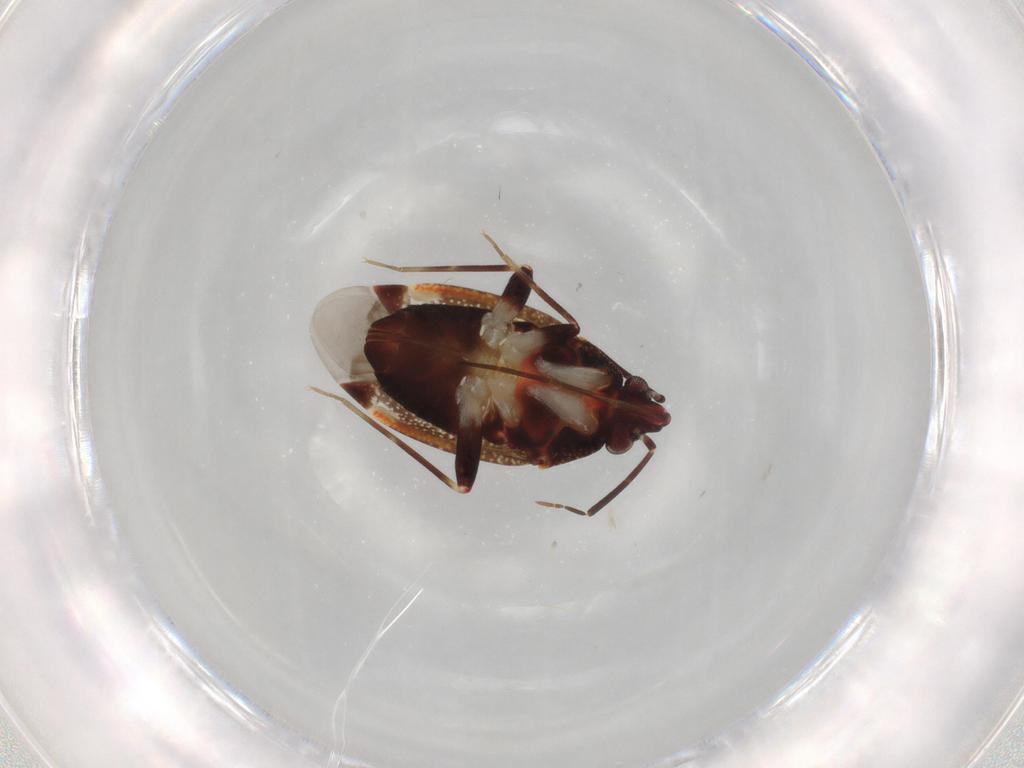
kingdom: Animalia
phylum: Arthropoda
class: Insecta
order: Hemiptera
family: Miridae
